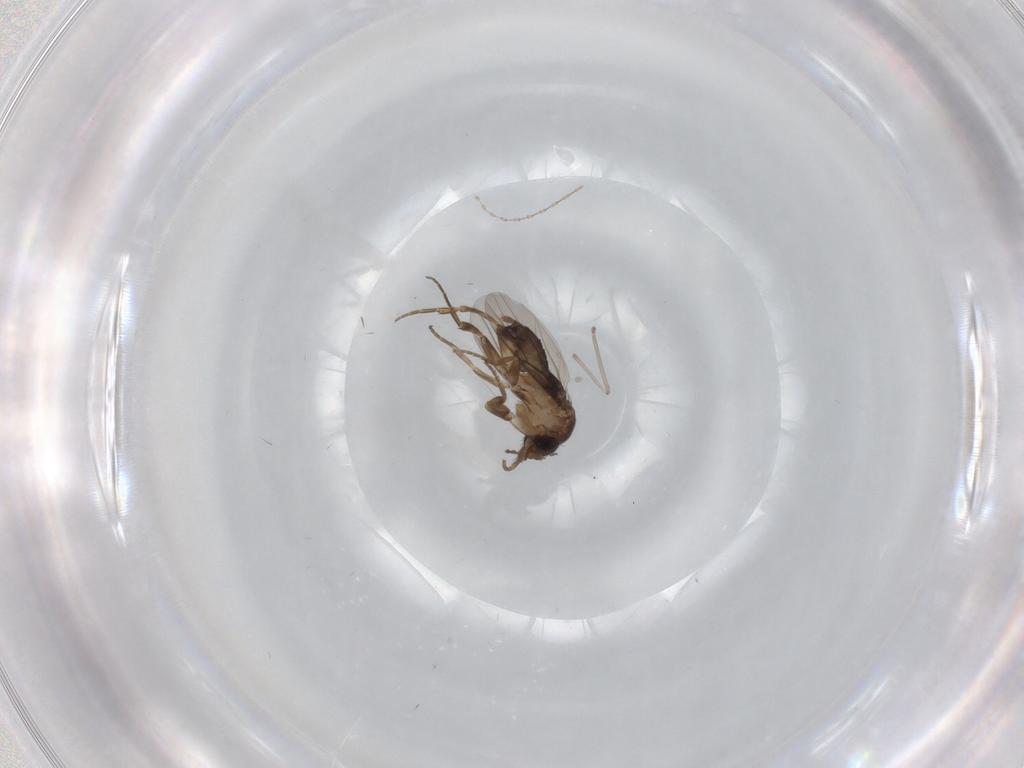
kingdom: Animalia
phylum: Arthropoda
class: Insecta
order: Diptera
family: Phoridae
